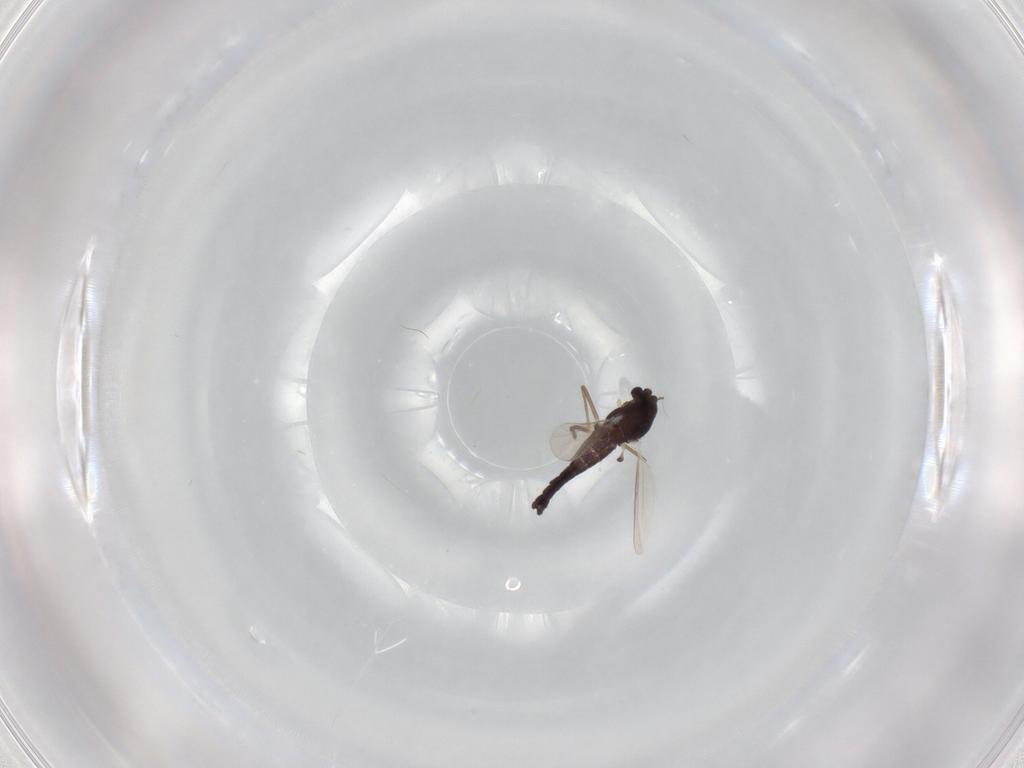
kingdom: Animalia
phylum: Arthropoda
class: Insecta
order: Diptera
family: Chironomidae
